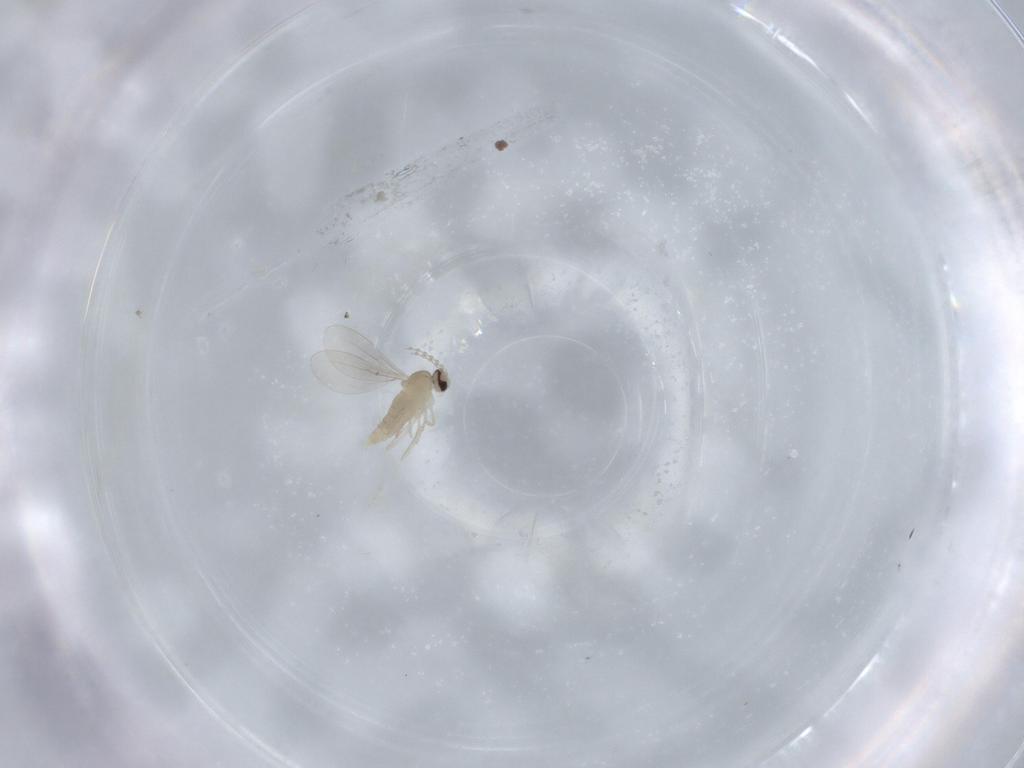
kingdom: Animalia
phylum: Arthropoda
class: Insecta
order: Diptera
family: Cecidomyiidae
